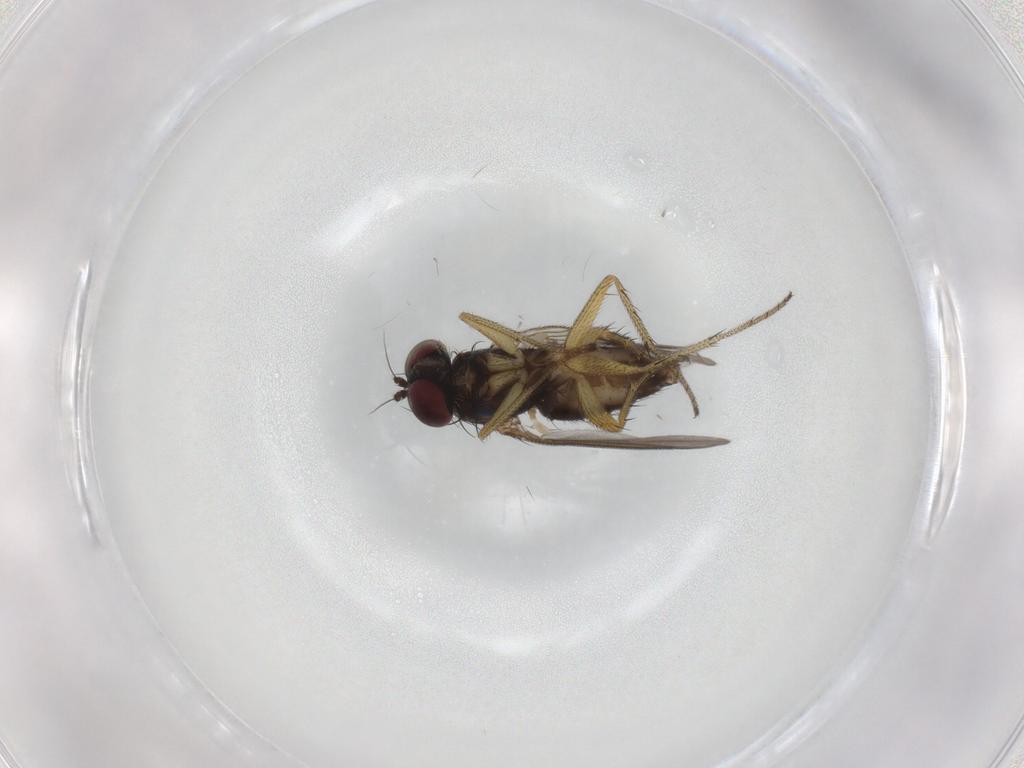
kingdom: Animalia
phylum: Arthropoda
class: Insecta
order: Diptera
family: Dolichopodidae
